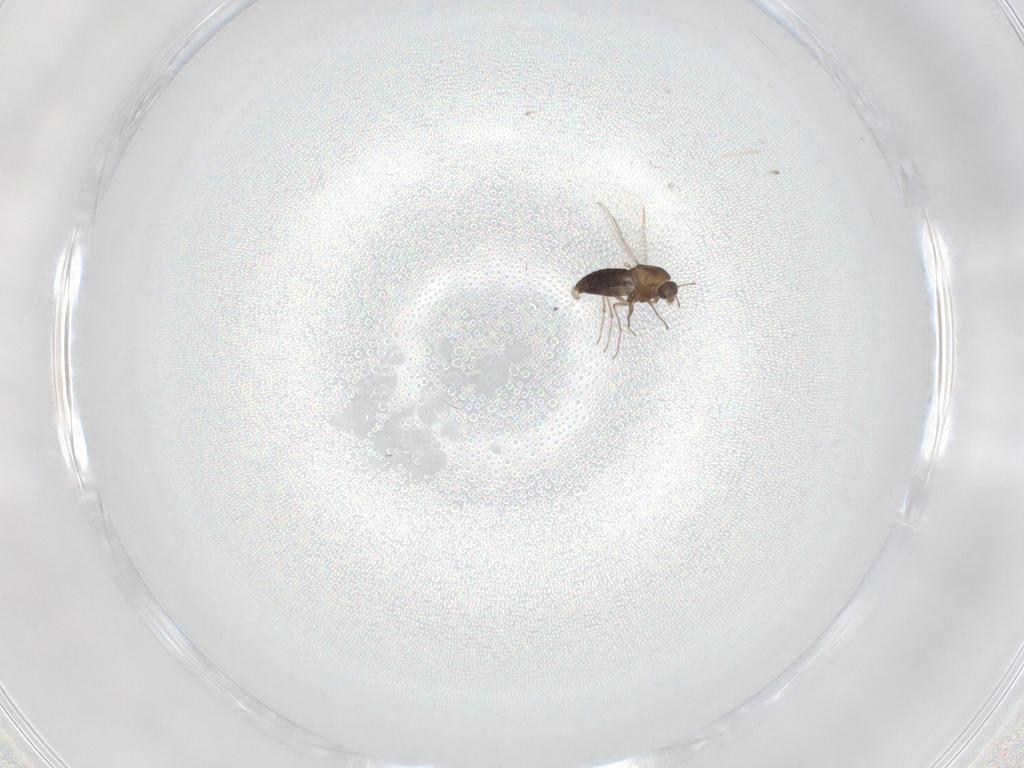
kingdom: Animalia
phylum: Arthropoda
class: Insecta
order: Diptera
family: Chironomidae
